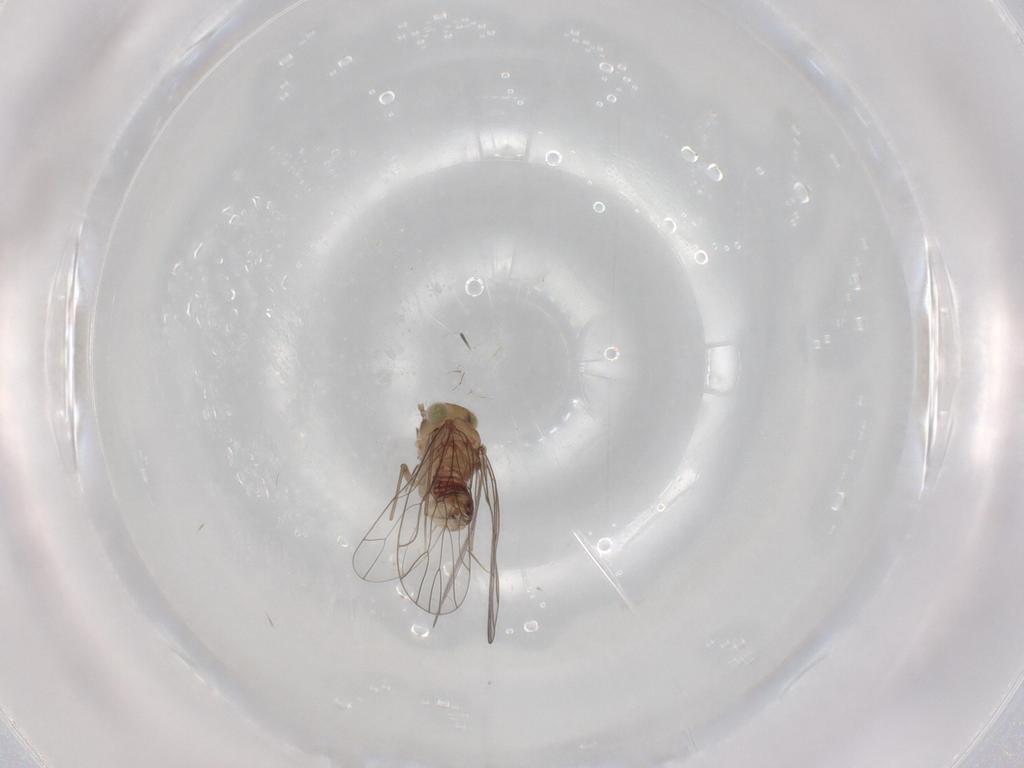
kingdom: Animalia
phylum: Arthropoda
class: Insecta
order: Psocodea
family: Amphientomidae
